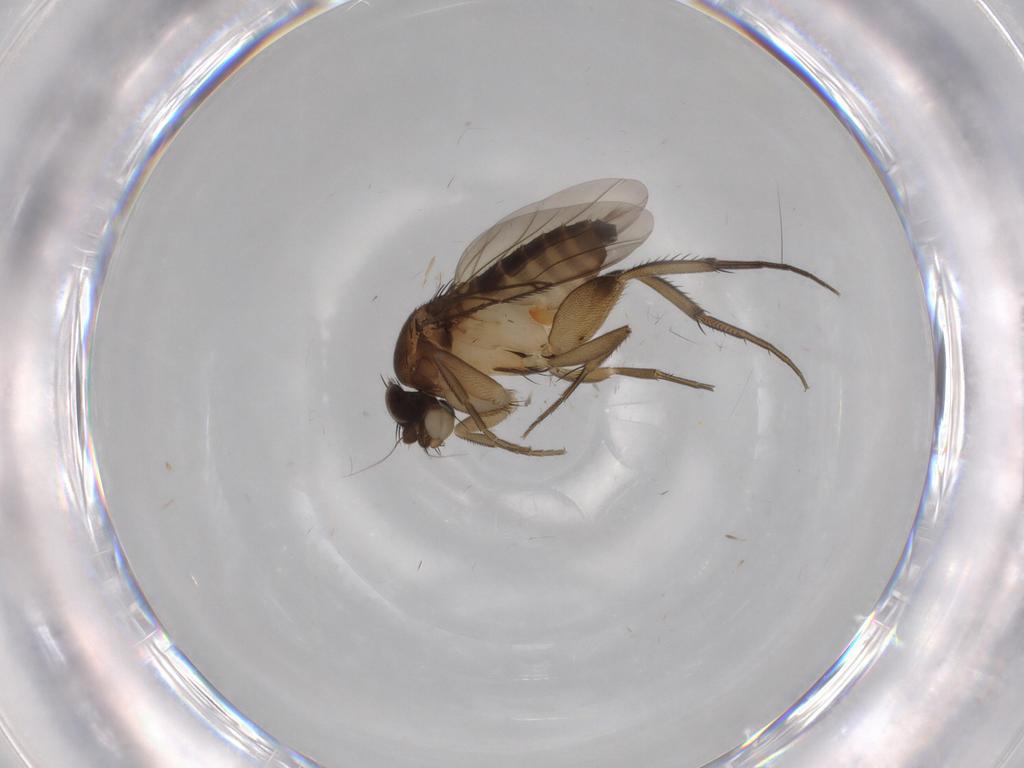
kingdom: Animalia
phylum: Arthropoda
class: Insecta
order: Diptera
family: Phoridae
